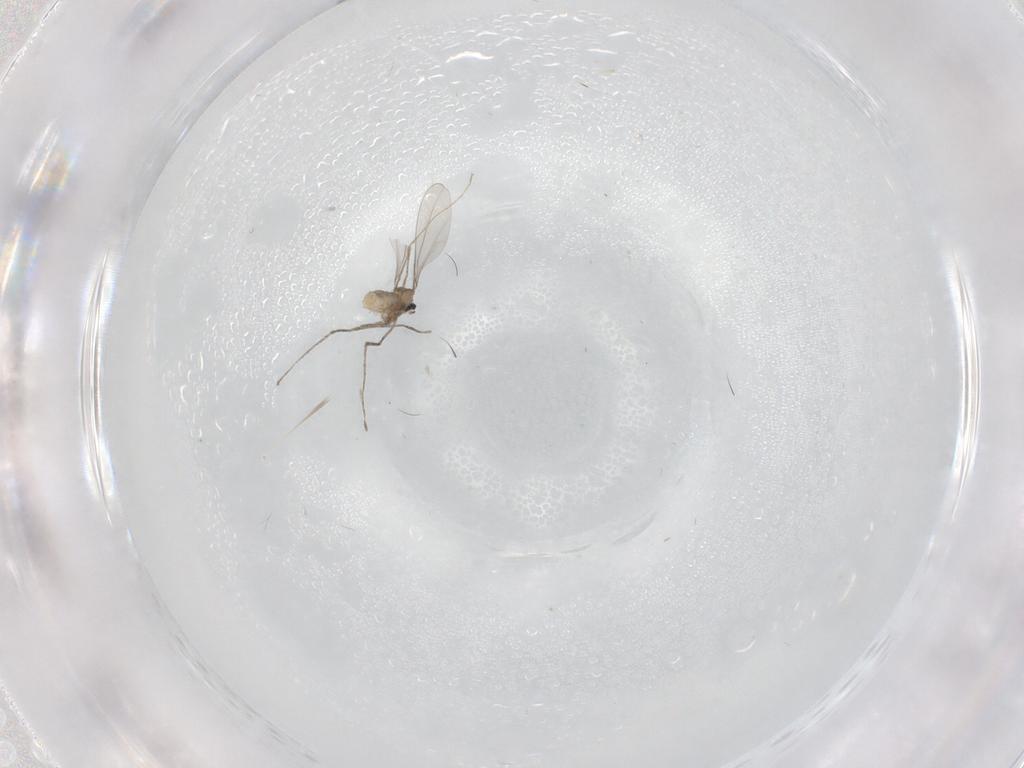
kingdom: Animalia
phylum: Arthropoda
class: Insecta
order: Diptera
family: Cecidomyiidae
